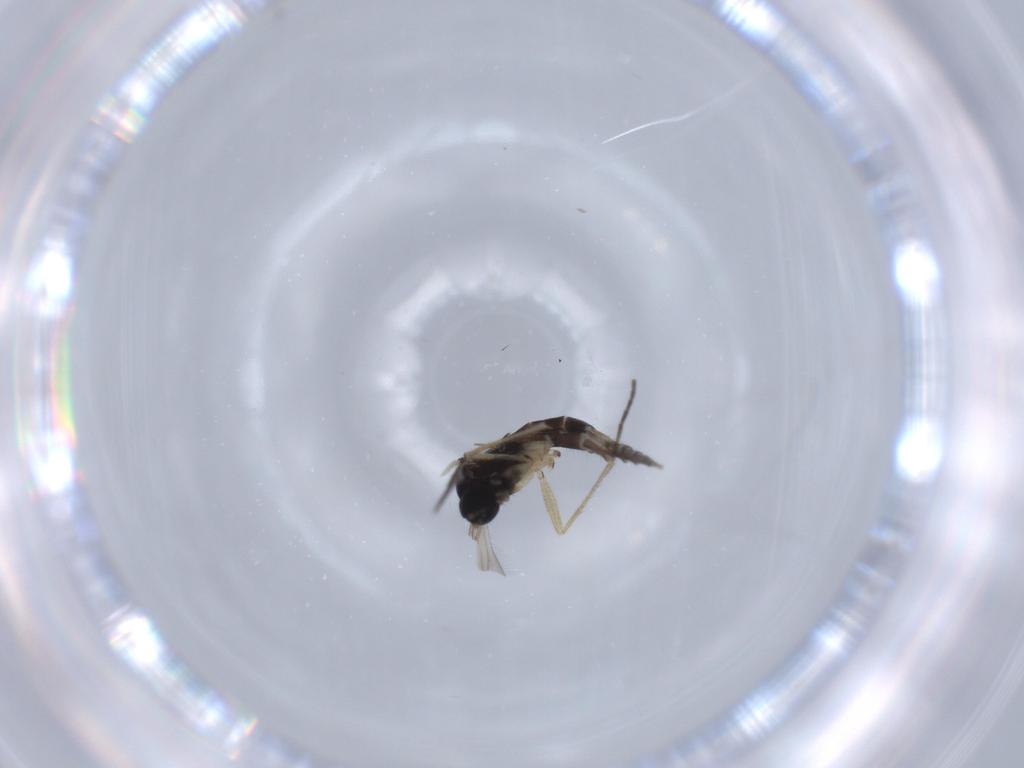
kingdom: Animalia
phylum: Arthropoda
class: Insecta
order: Diptera
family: Sciaridae
